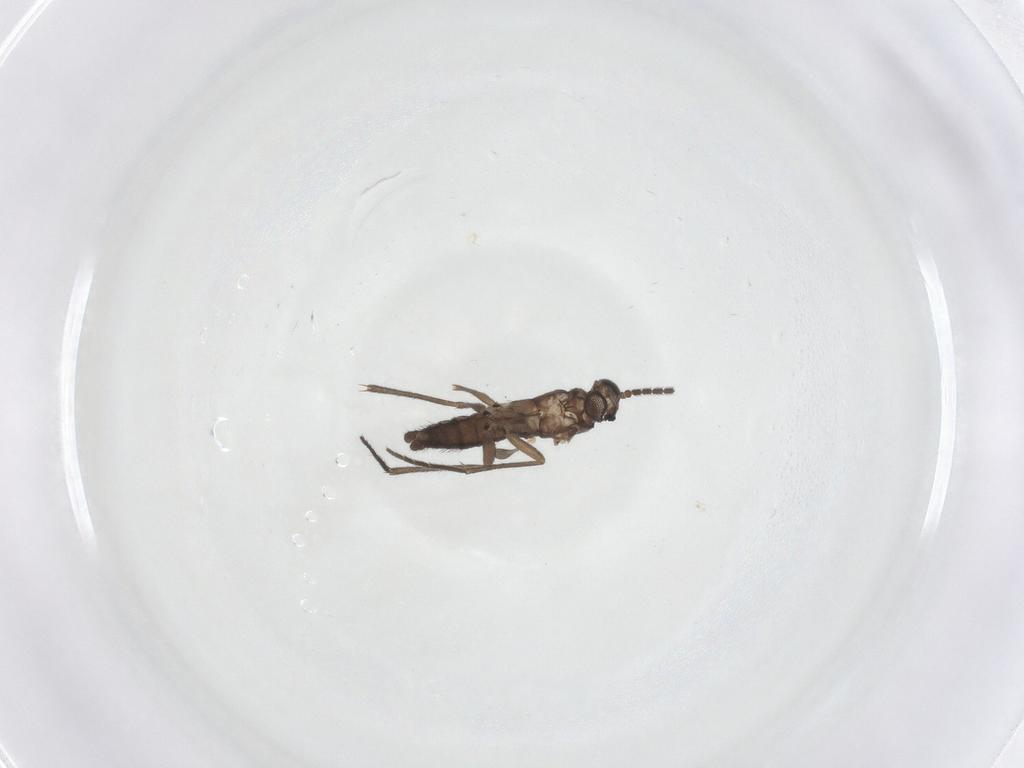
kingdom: Animalia
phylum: Arthropoda
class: Insecta
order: Diptera
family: Sciaridae
